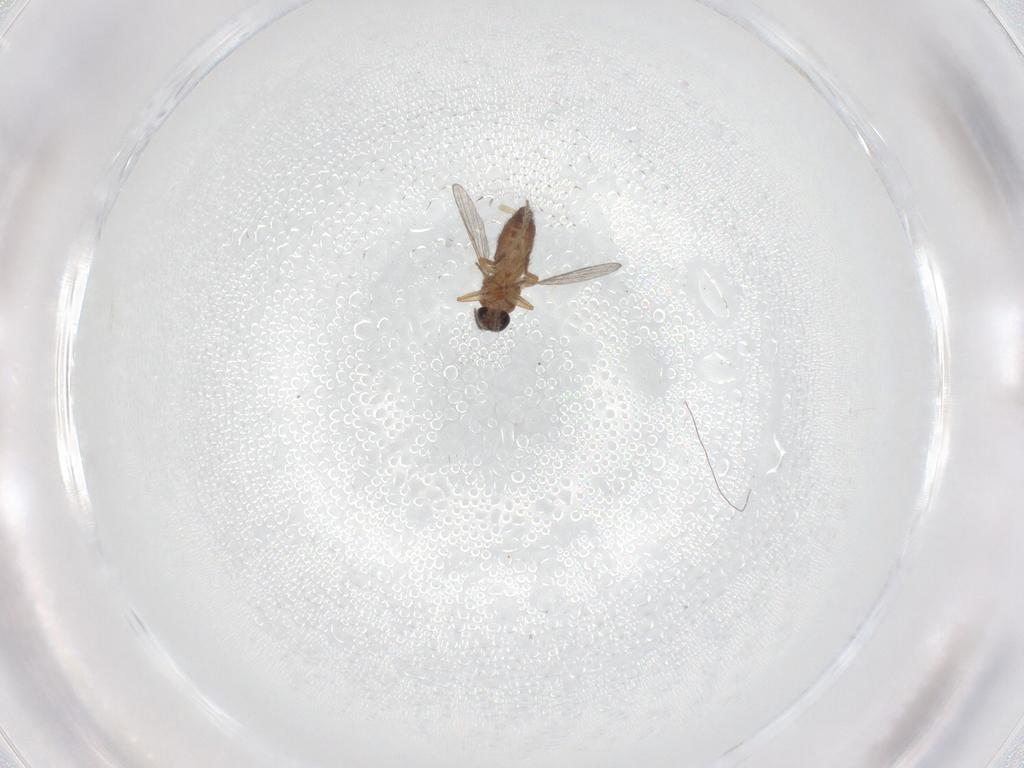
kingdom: Animalia
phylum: Arthropoda
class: Insecta
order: Diptera
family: Ceratopogonidae
